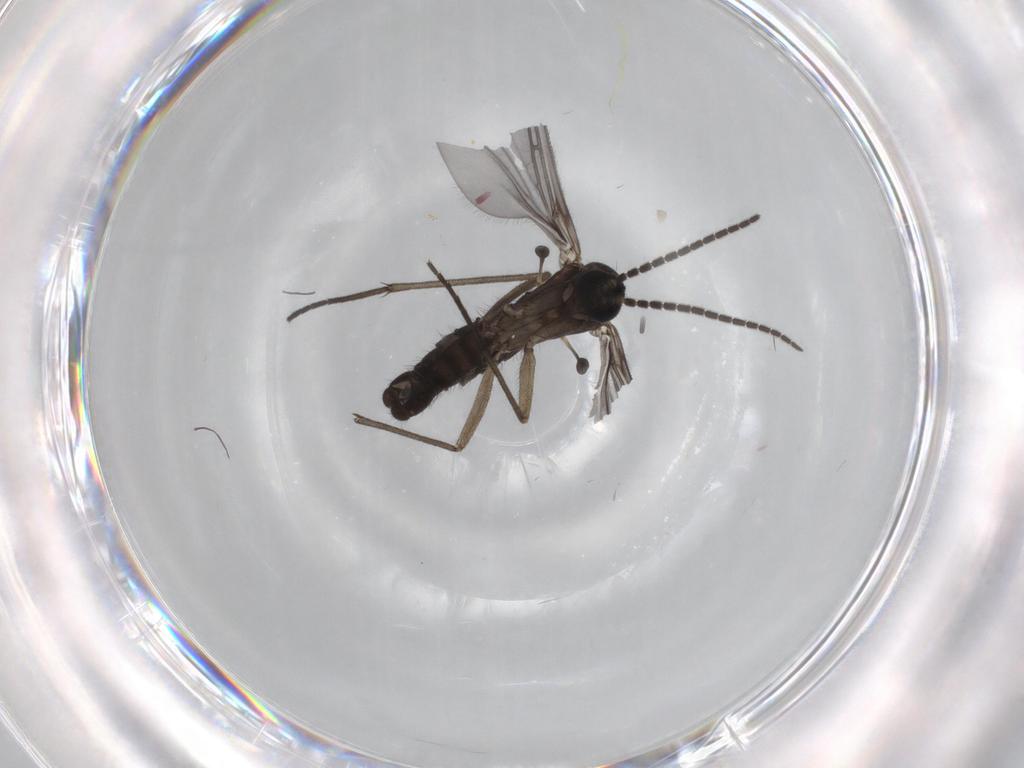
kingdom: Animalia
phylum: Arthropoda
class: Insecta
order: Diptera
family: Psychodidae
